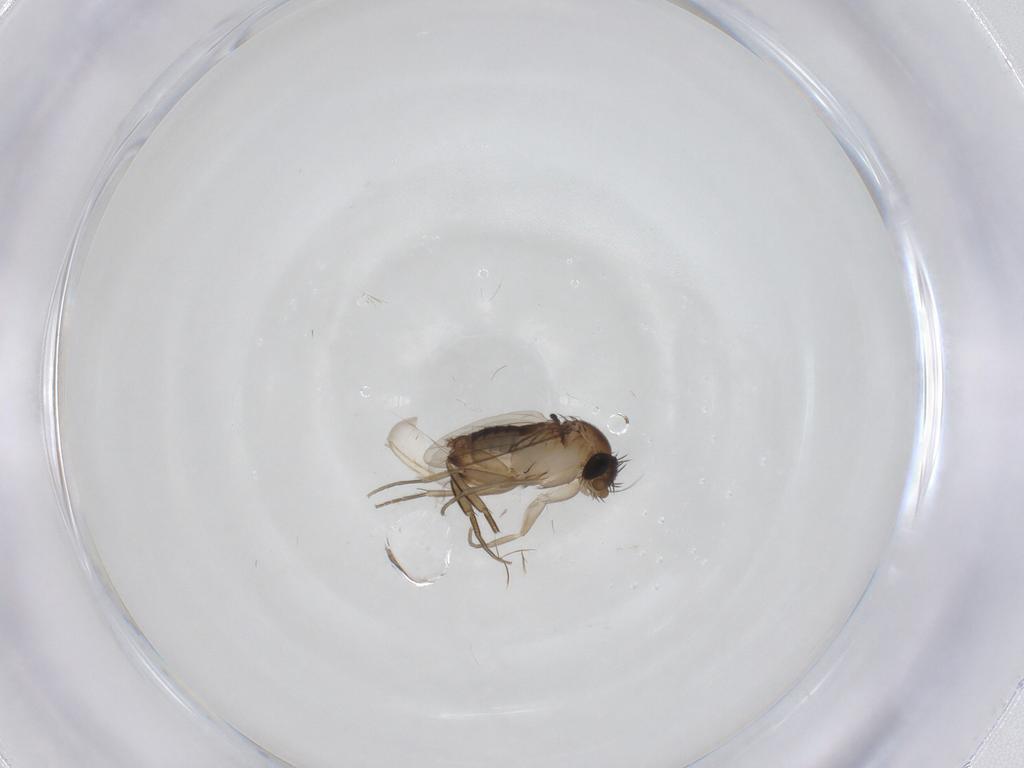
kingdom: Animalia
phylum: Arthropoda
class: Insecta
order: Diptera
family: Phoridae
